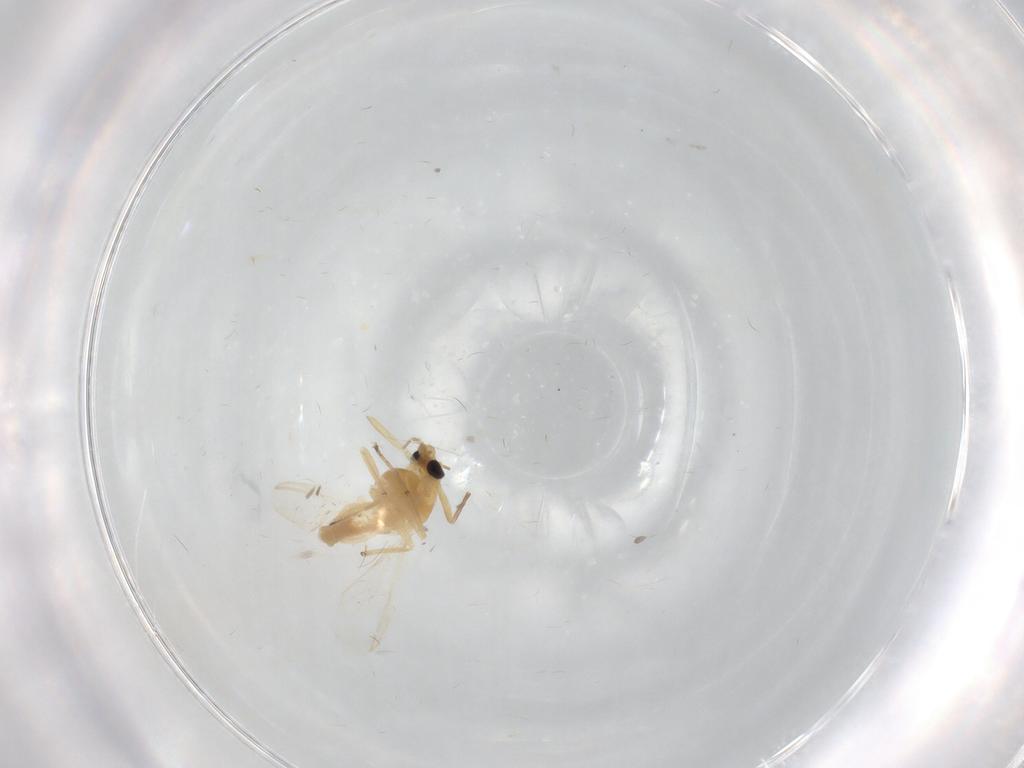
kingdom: Animalia
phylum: Arthropoda
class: Insecta
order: Diptera
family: Chironomidae
